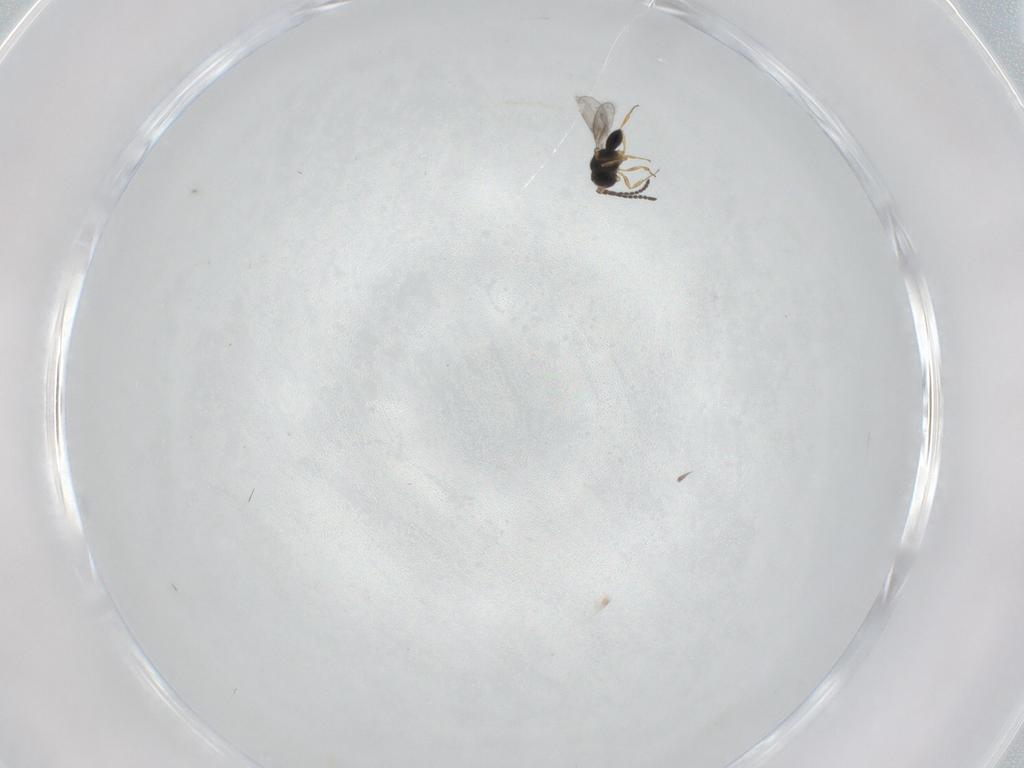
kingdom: Animalia
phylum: Arthropoda
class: Insecta
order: Hymenoptera
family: Scelionidae
